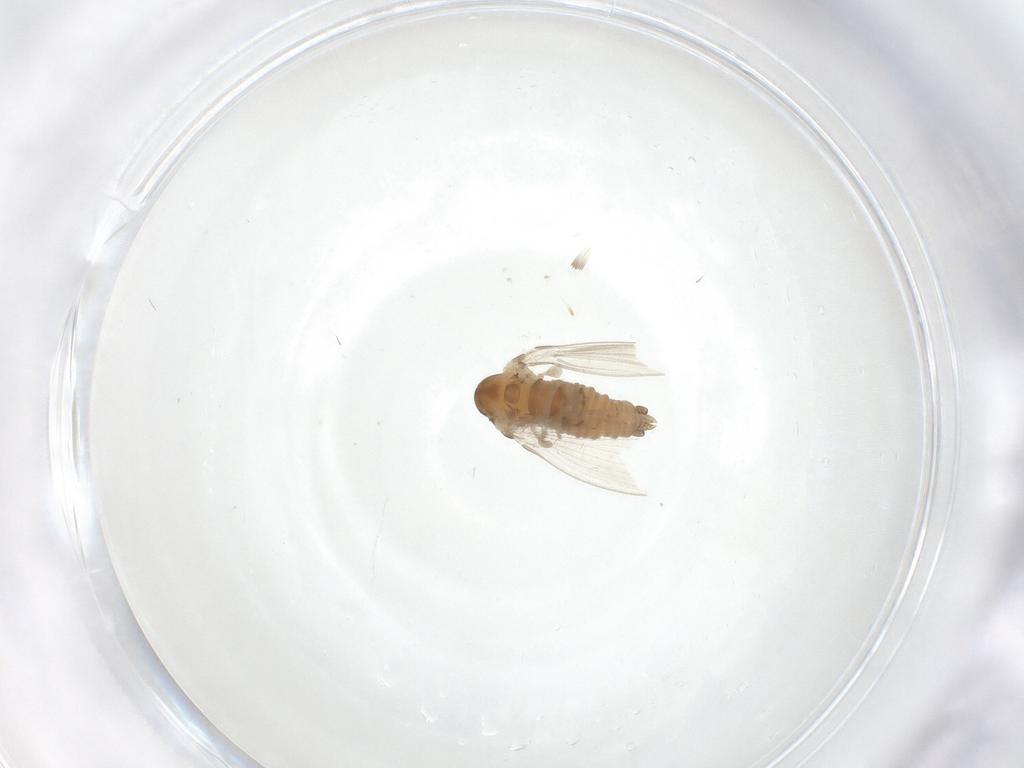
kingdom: Animalia
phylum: Arthropoda
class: Insecta
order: Diptera
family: Psychodidae
